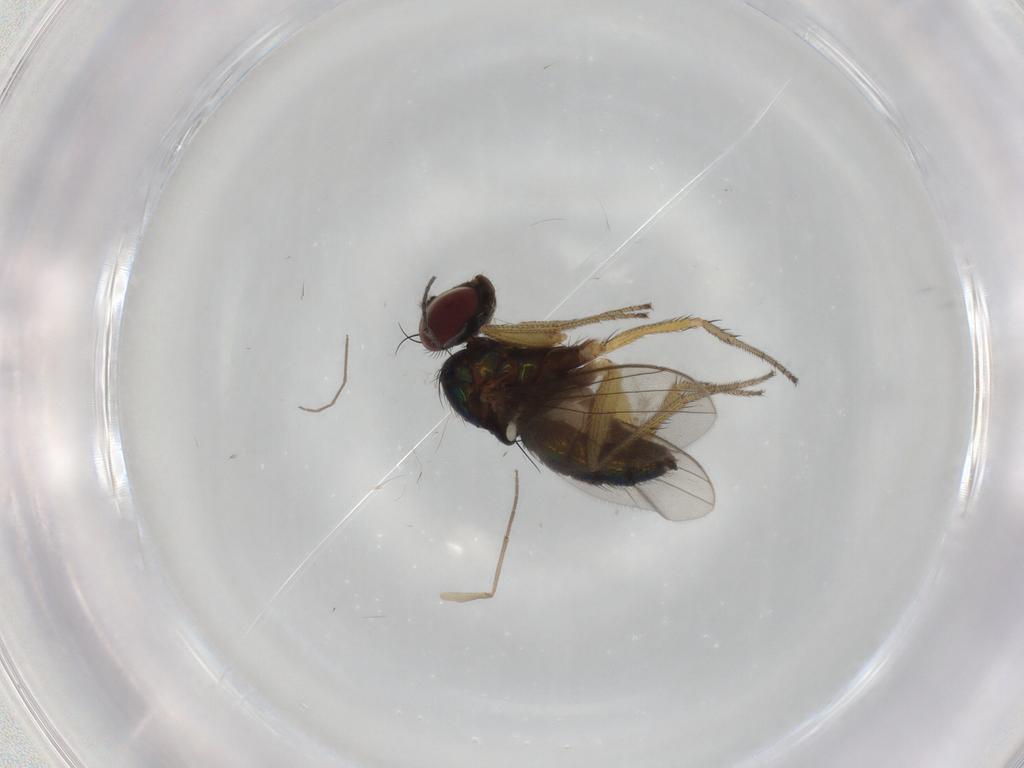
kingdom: Animalia
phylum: Arthropoda
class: Insecta
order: Diptera
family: Sciaridae
